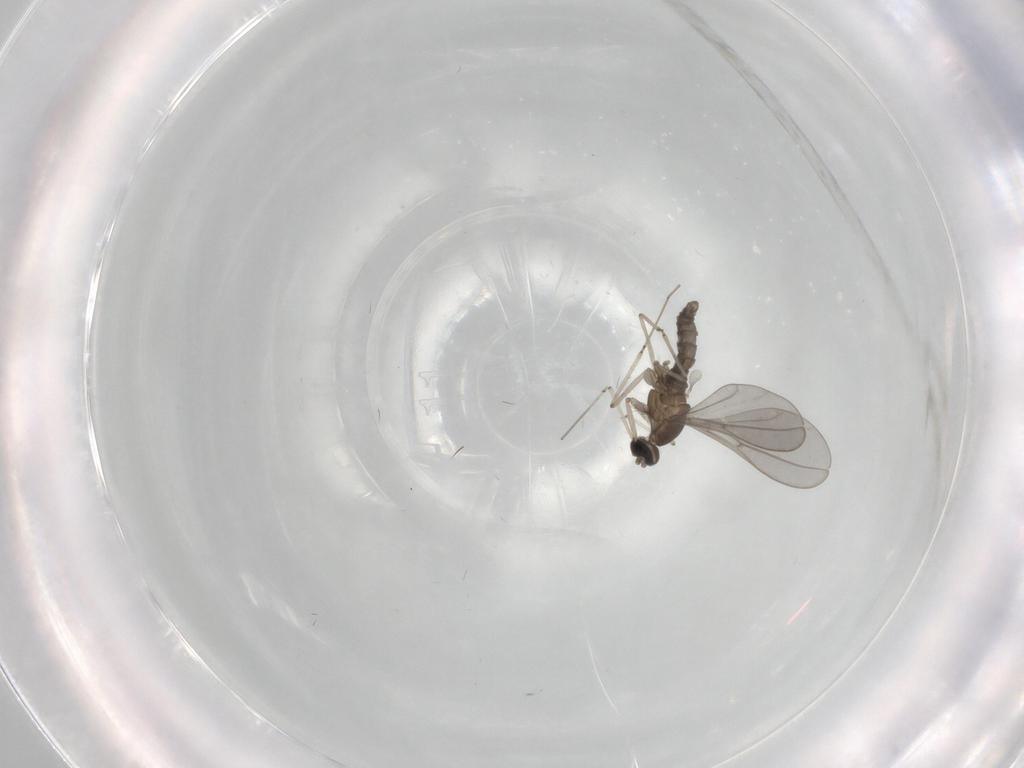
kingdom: Animalia
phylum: Arthropoda
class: Insecta
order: Diptera
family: Cecidomyiidae
